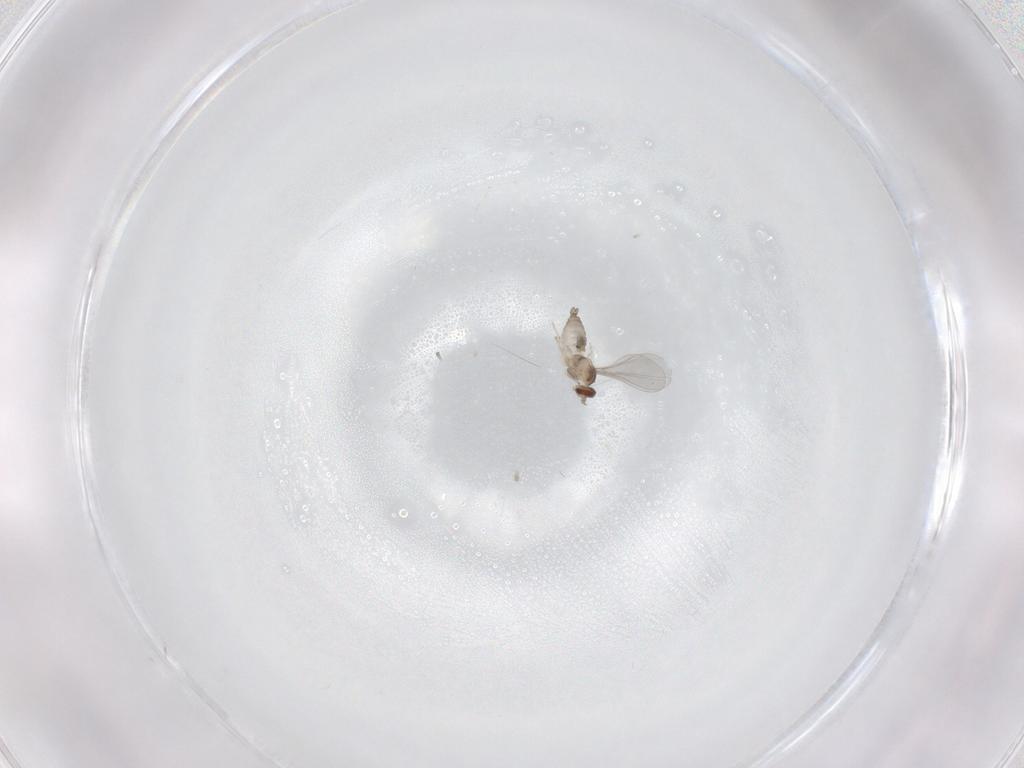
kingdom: Animalia
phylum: Arthropoda
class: Insecta
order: Diptera
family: Cecidomyiidae
